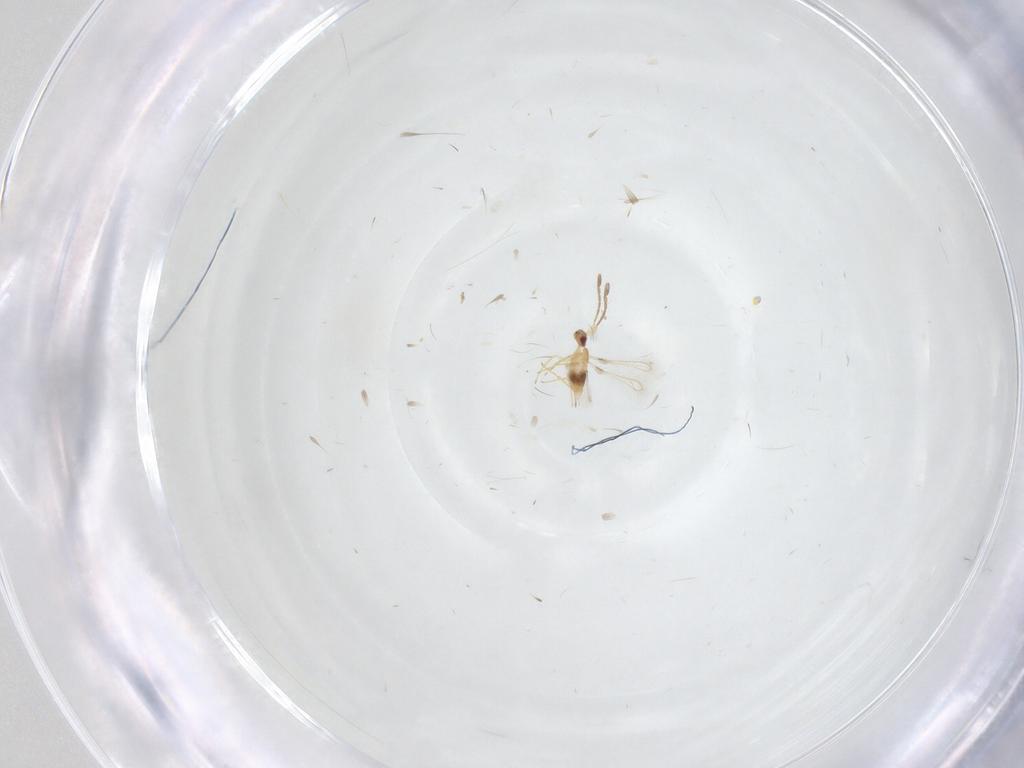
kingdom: Animalia
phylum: Arthropoda
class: Insecta
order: Hymenoptera
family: Mymaridae
